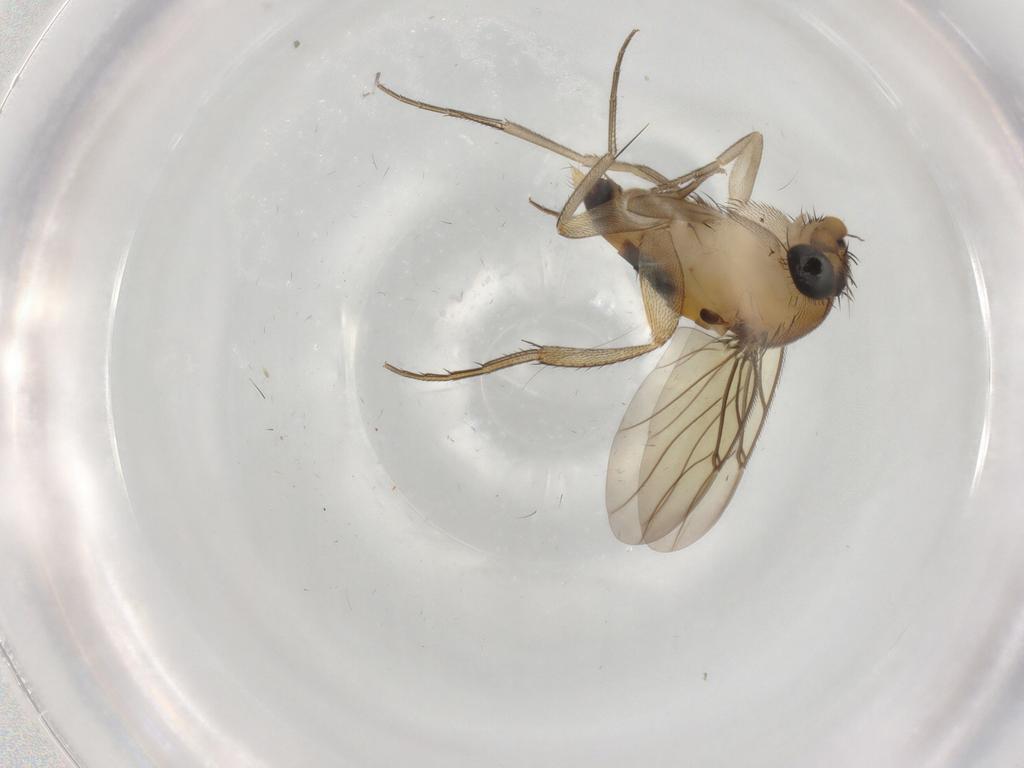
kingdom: Animalia
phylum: Arthropoda
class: Insecta
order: Diptera
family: Phoridae
